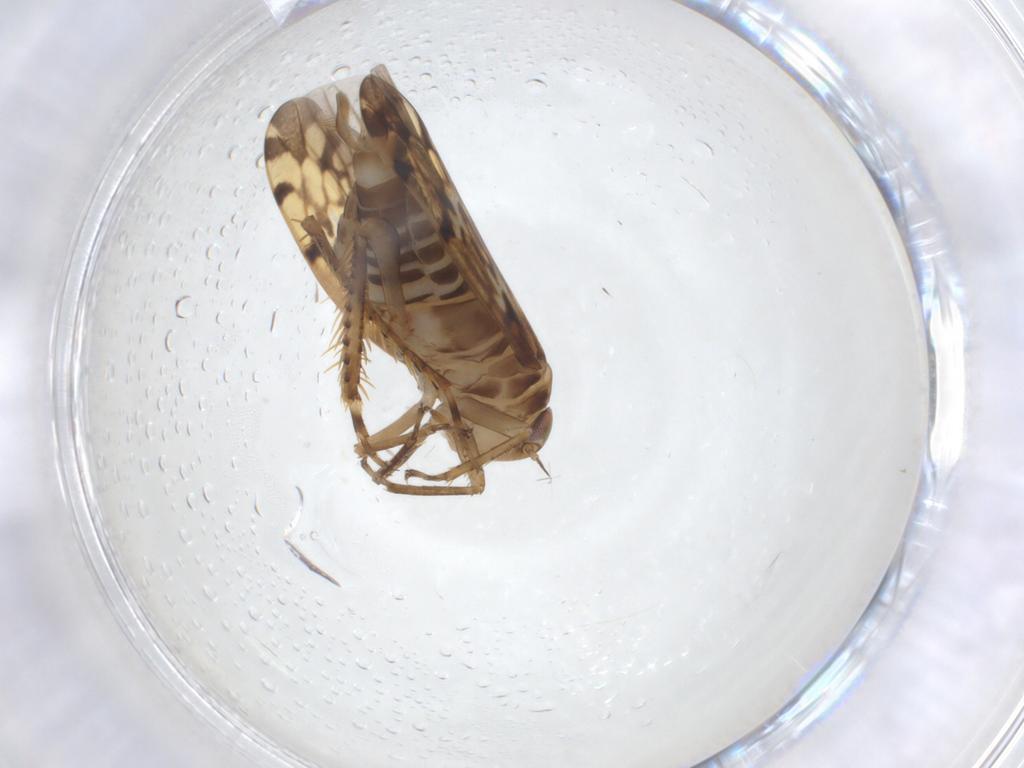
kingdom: Animalia
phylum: Arthropoda
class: Insecta
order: Hemiptera
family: Cicadellidae
